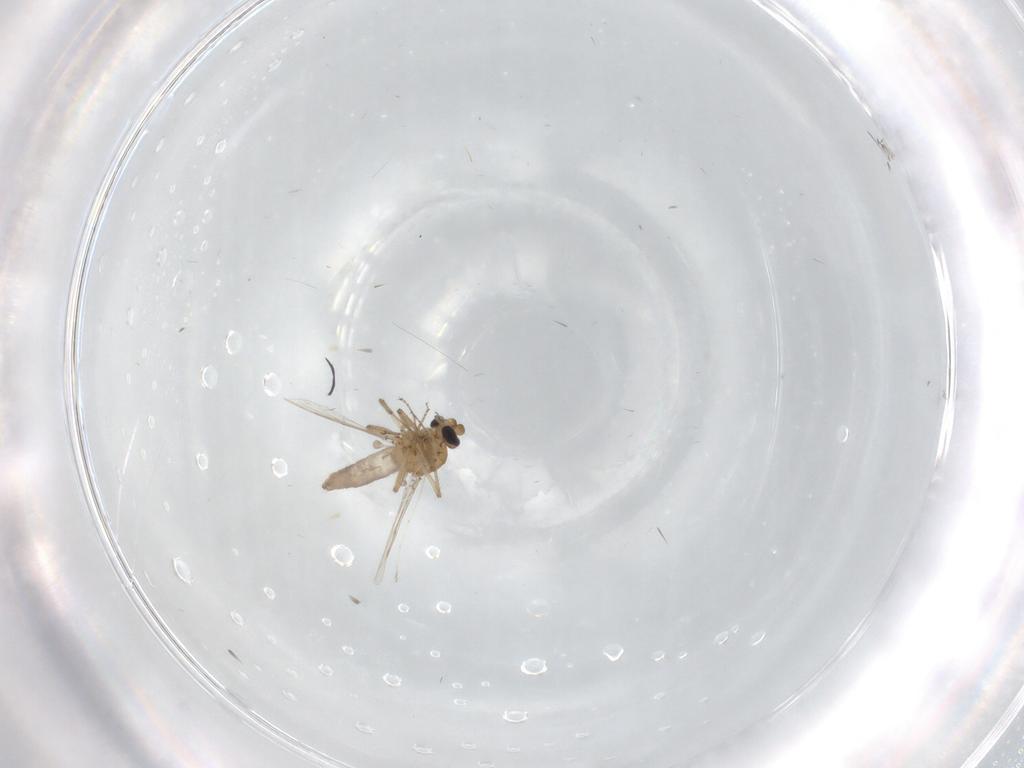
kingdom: Animalia
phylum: Arthropoda
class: Insecta
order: Diptera
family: Ceratopogonidae
